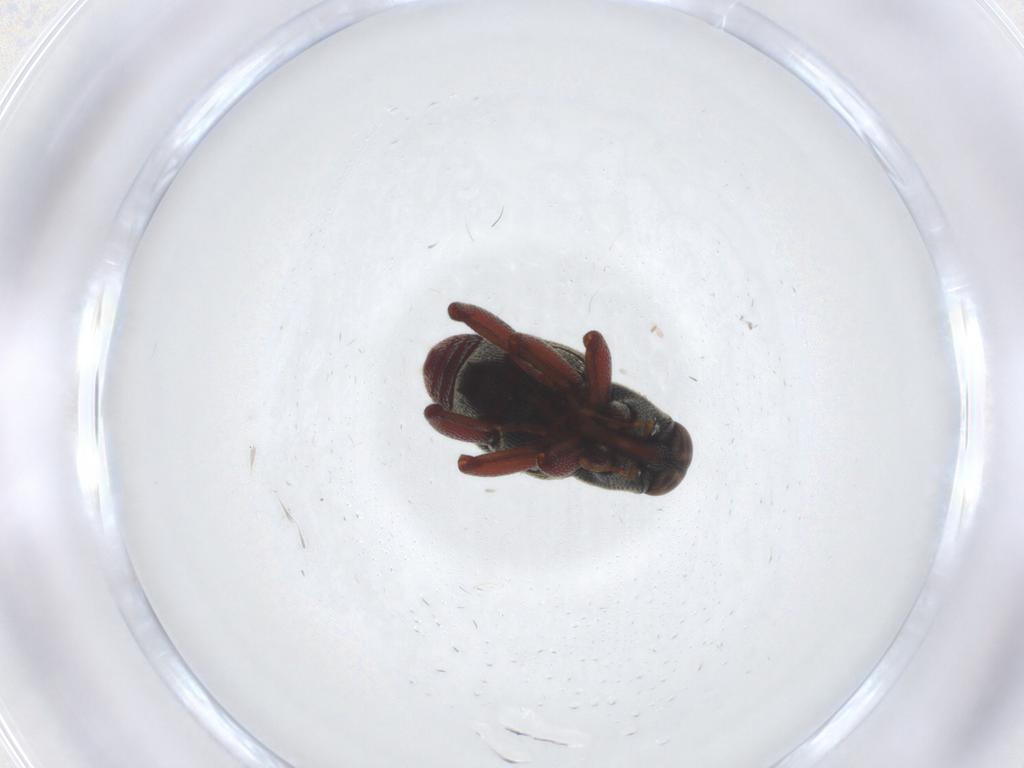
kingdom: Animalia
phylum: Arthropoda
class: Insecta
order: Coleoptera
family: Curculionidae
